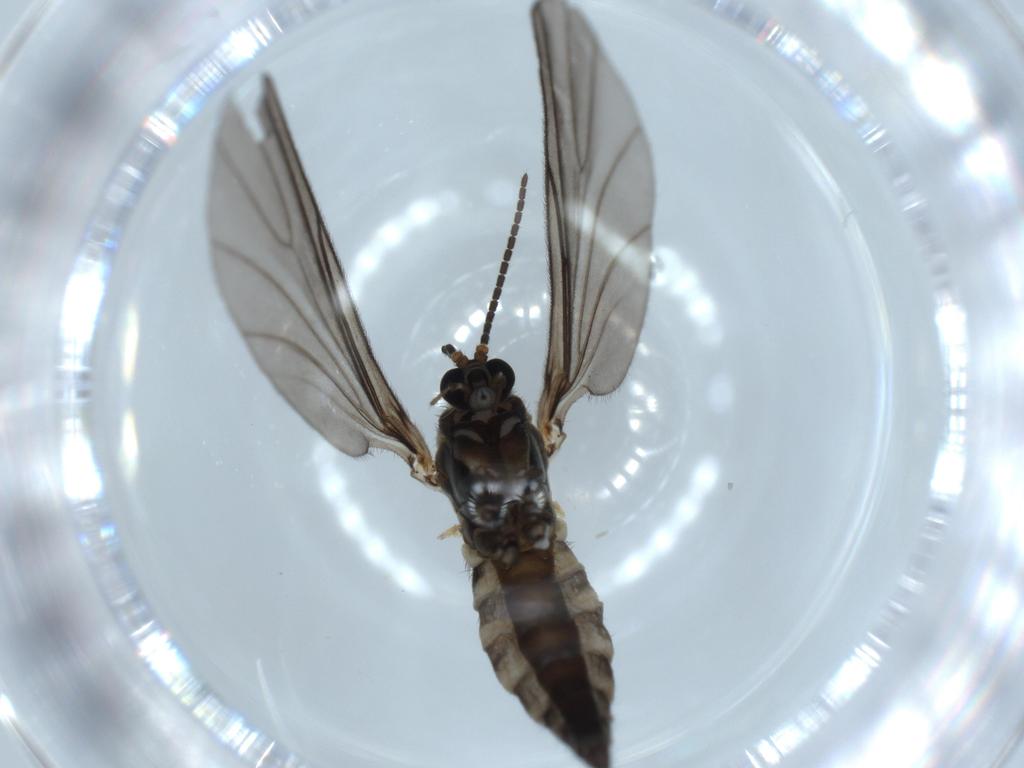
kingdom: Animalia
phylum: Arthropoda
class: Insecta
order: Diptera
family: Sciaridae
